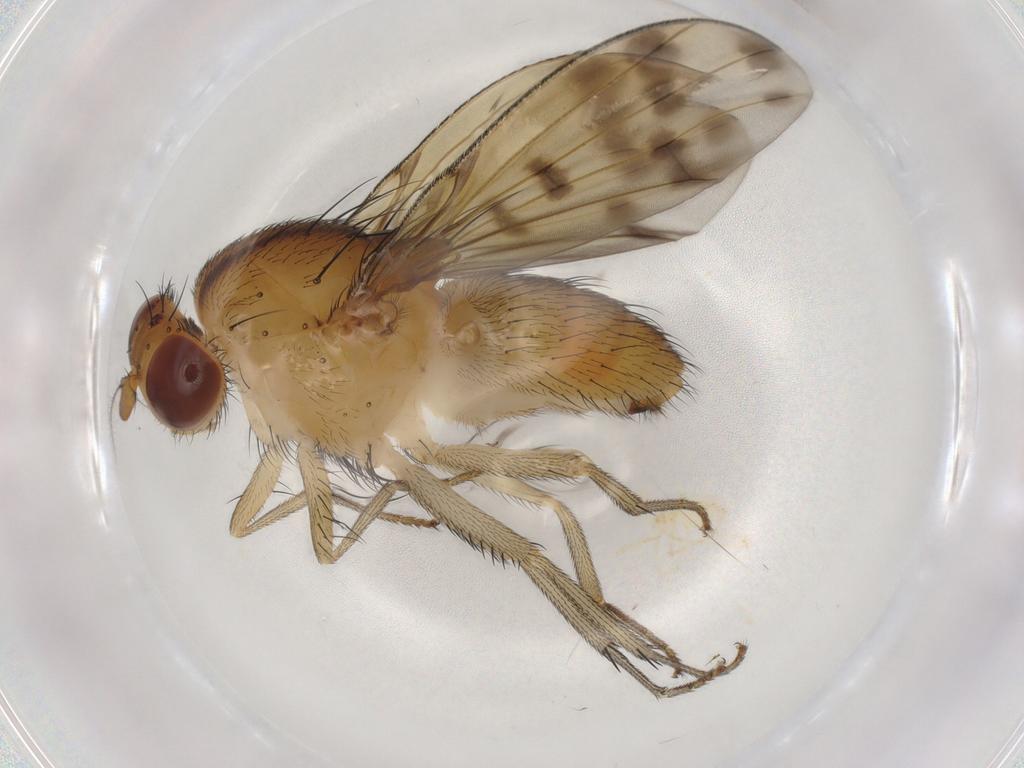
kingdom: Animalia
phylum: Arthropoda
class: Insecta
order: Diptera
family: Sciaridae
